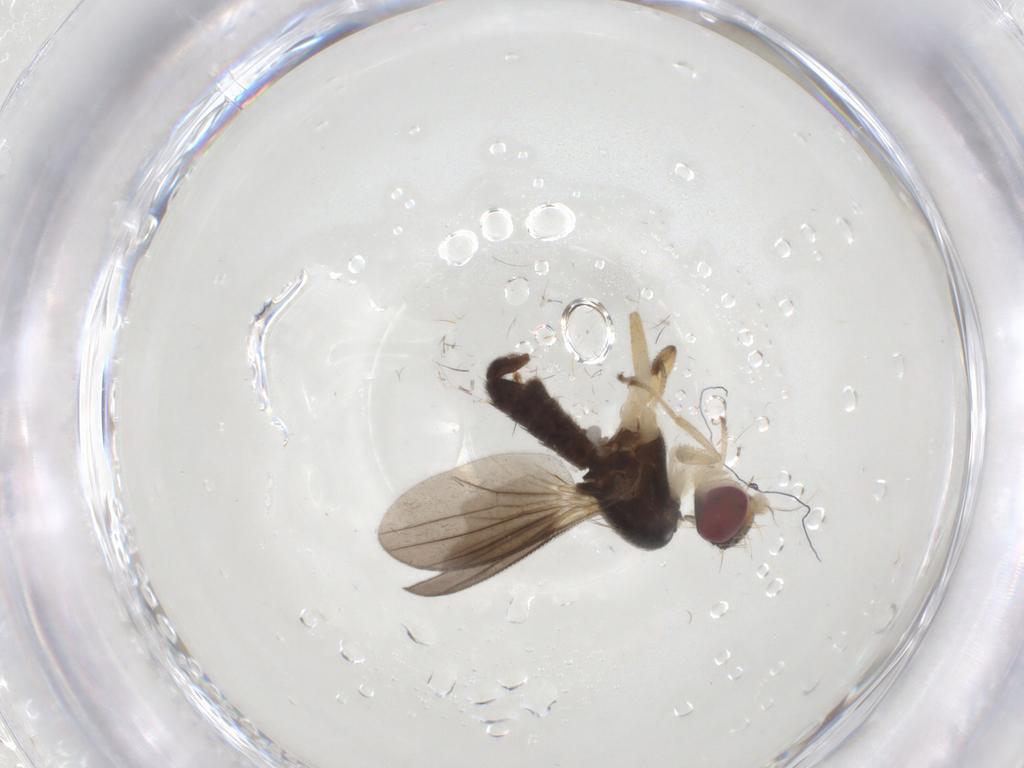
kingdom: Animalia
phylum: Arthropoda
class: Insecta
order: Diptera
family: Clusiidae
